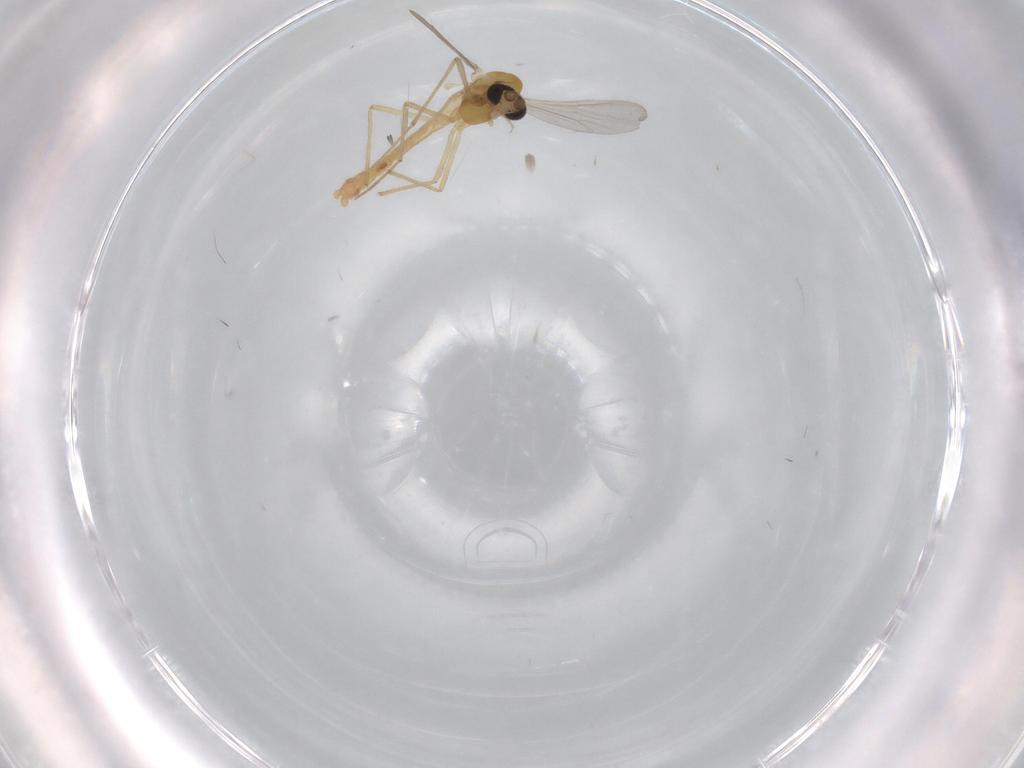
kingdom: Animalia
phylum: Arthropoda
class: Insecta
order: Diptera
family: Chironomidae
